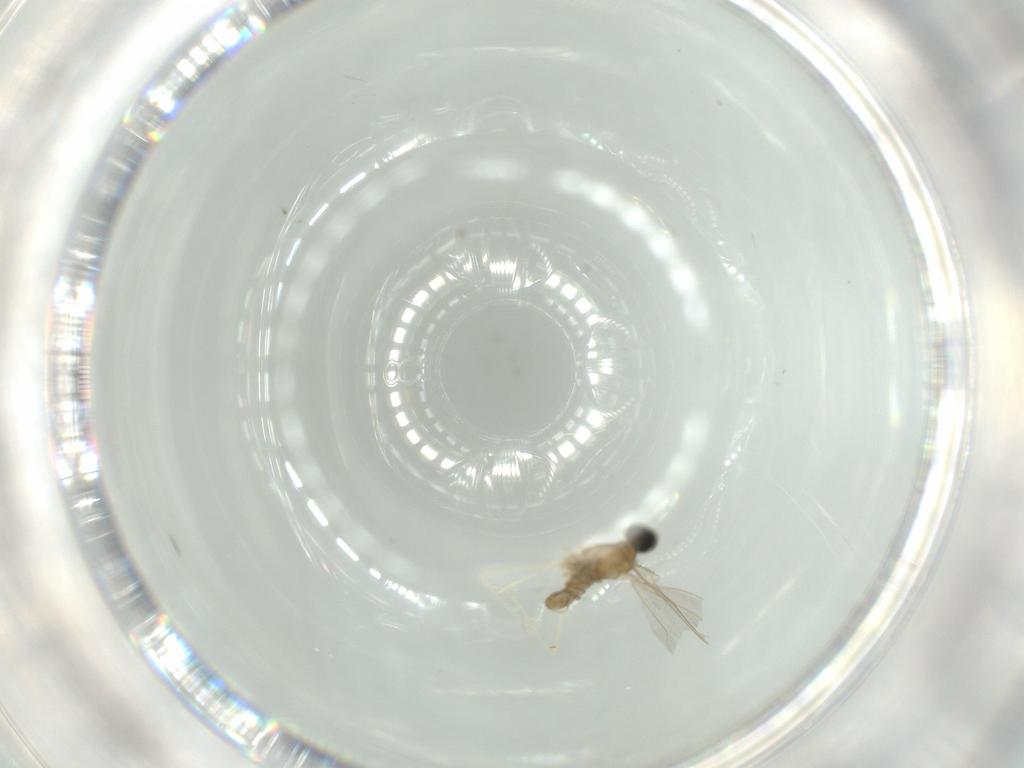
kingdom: Animalia
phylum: Arthropoda
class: Insecta
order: Diptera
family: Cecidomyiidae
